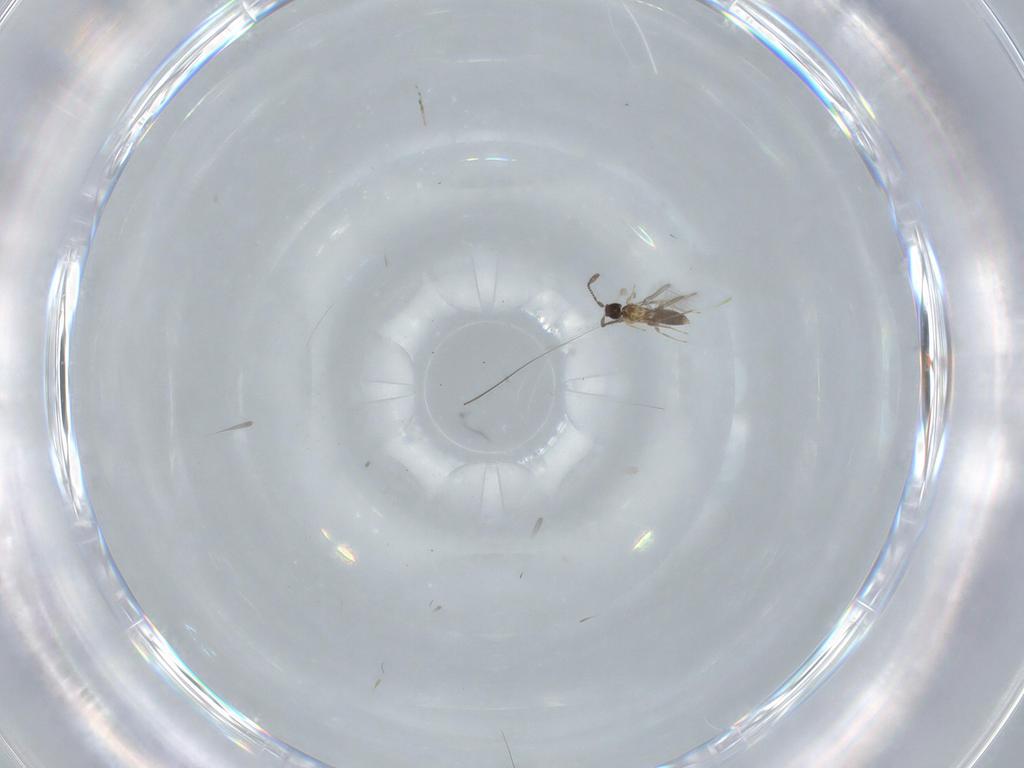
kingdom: Animalia
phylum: Arthropoda
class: Insecta
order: Hymenoptera
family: Mymaridae
